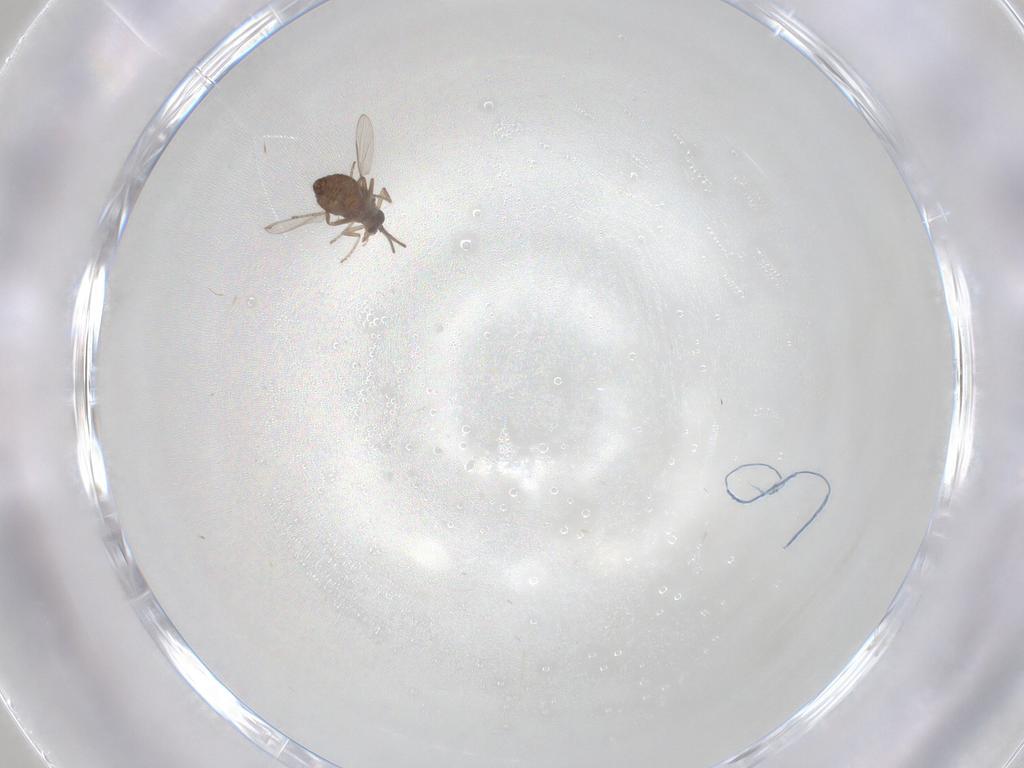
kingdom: Animalia
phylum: Arthropoda
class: Insecta
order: Diptera
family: Ceratopogonidae
